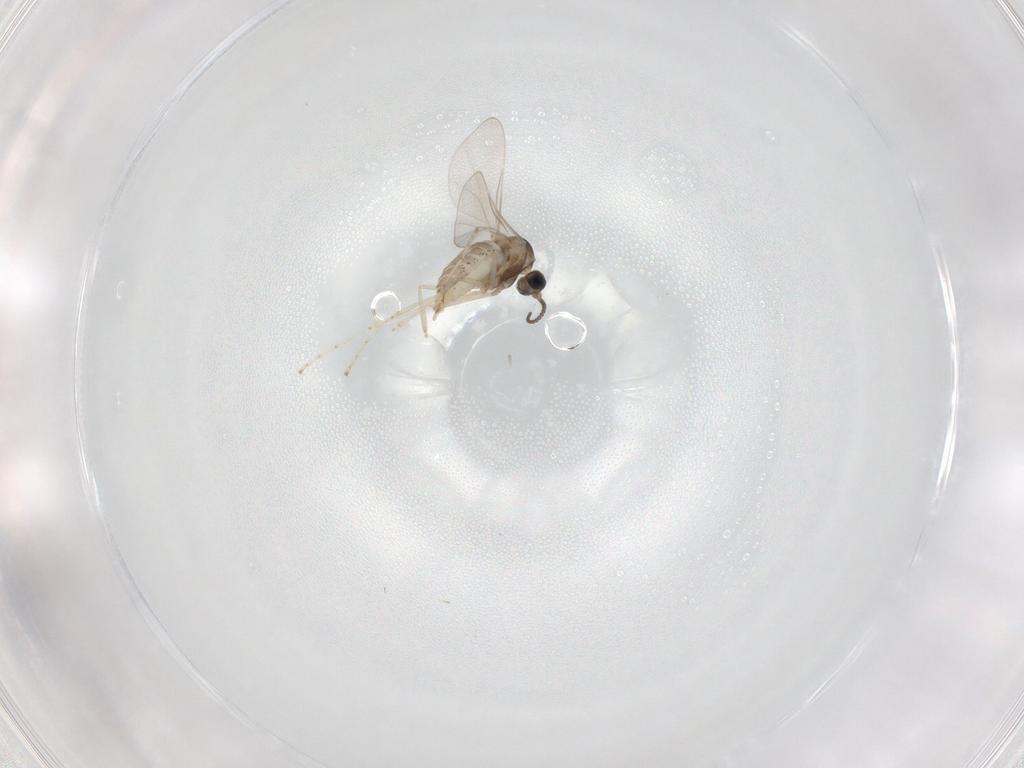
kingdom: Animalia
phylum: Arthropoda
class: Insecta
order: Diptera
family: Cecidomyiidae
